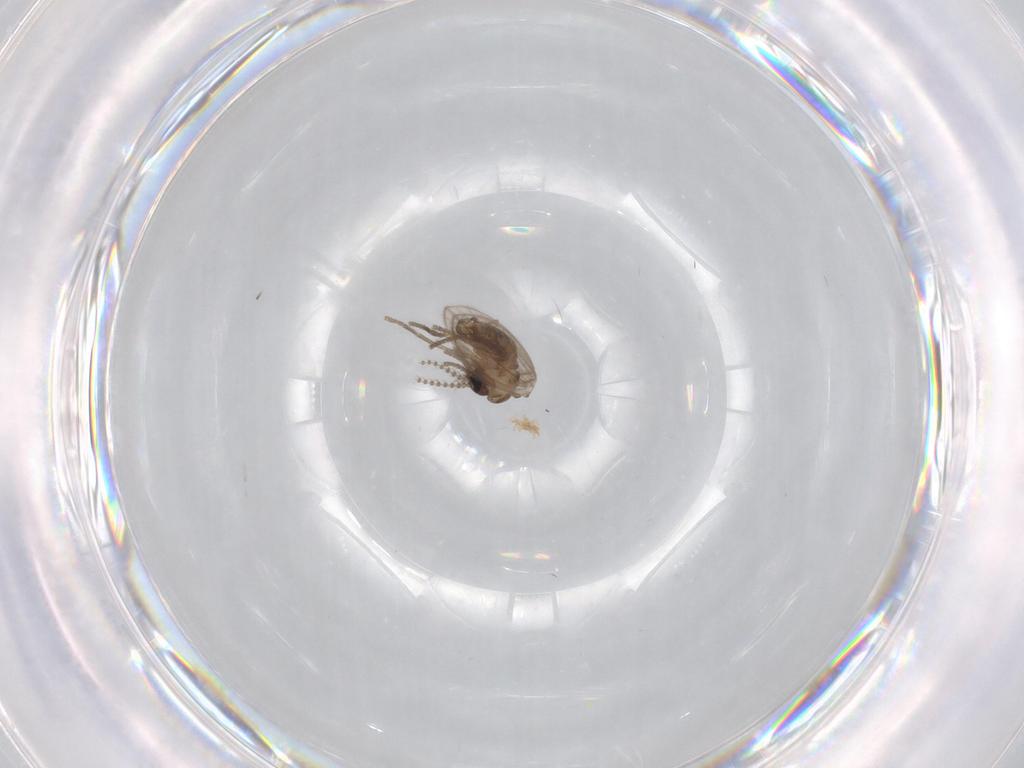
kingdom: Animalia
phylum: Arthropoda
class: Insecta
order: Diptera
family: Psychodidae
